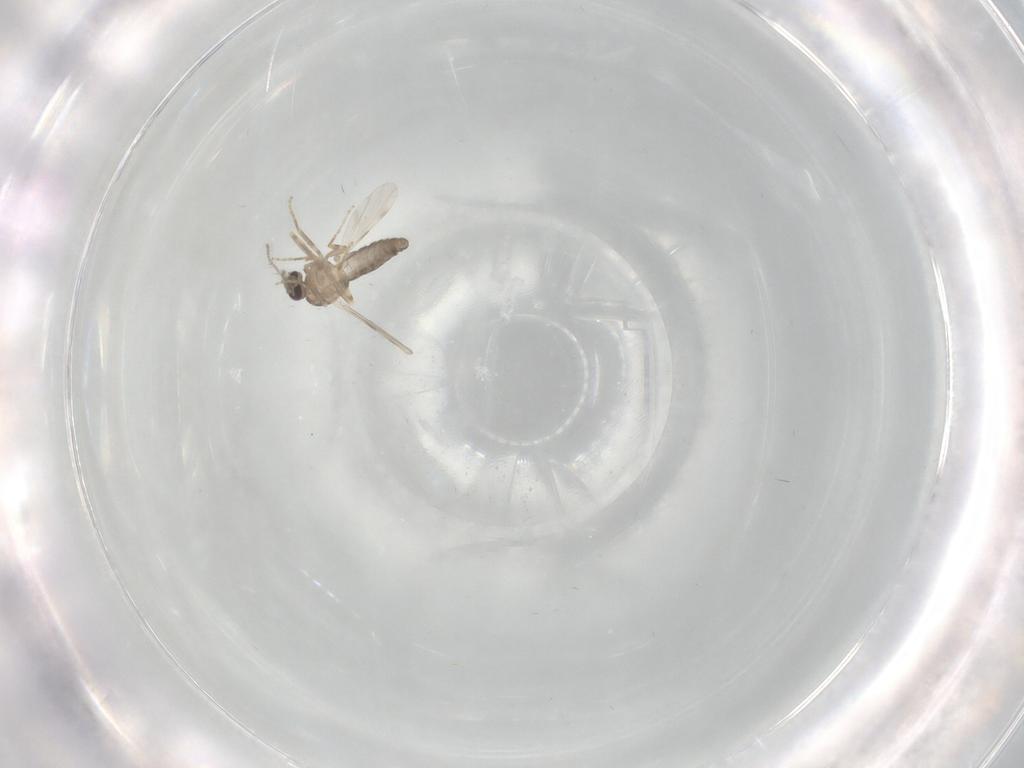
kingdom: Animalia
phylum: Arthropoda
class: Insecta
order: Diptera
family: Ceratopogonidae
